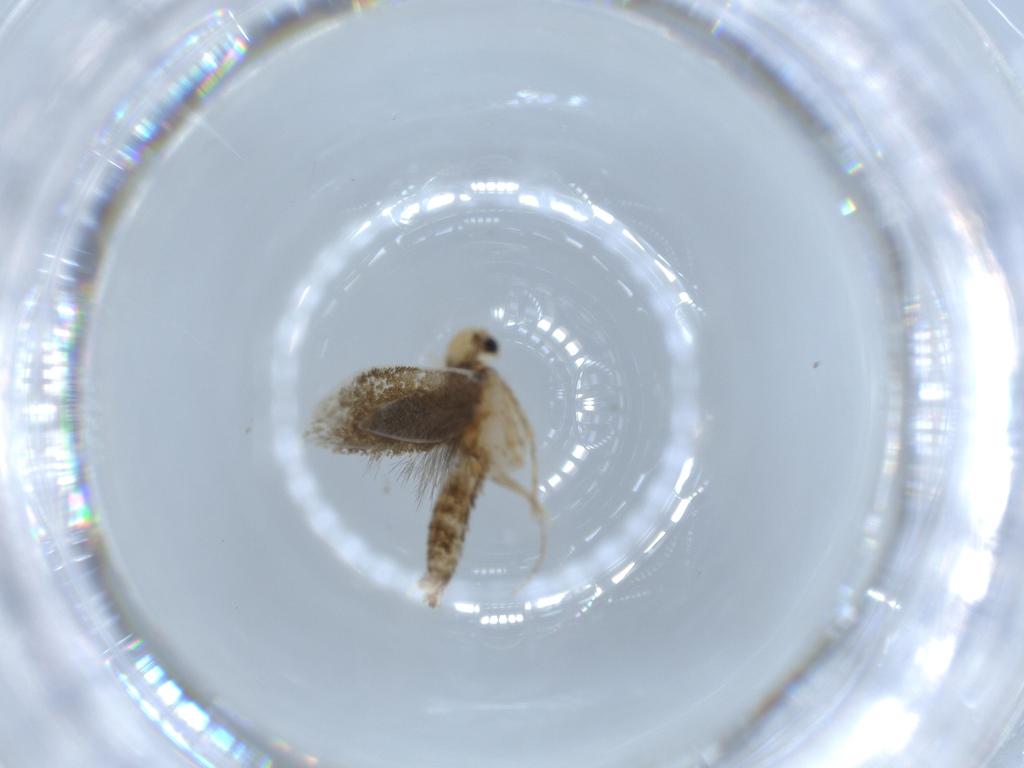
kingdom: Animalia
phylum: Arthropoda
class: Insecta
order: Lepidoptera
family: Tineidae
